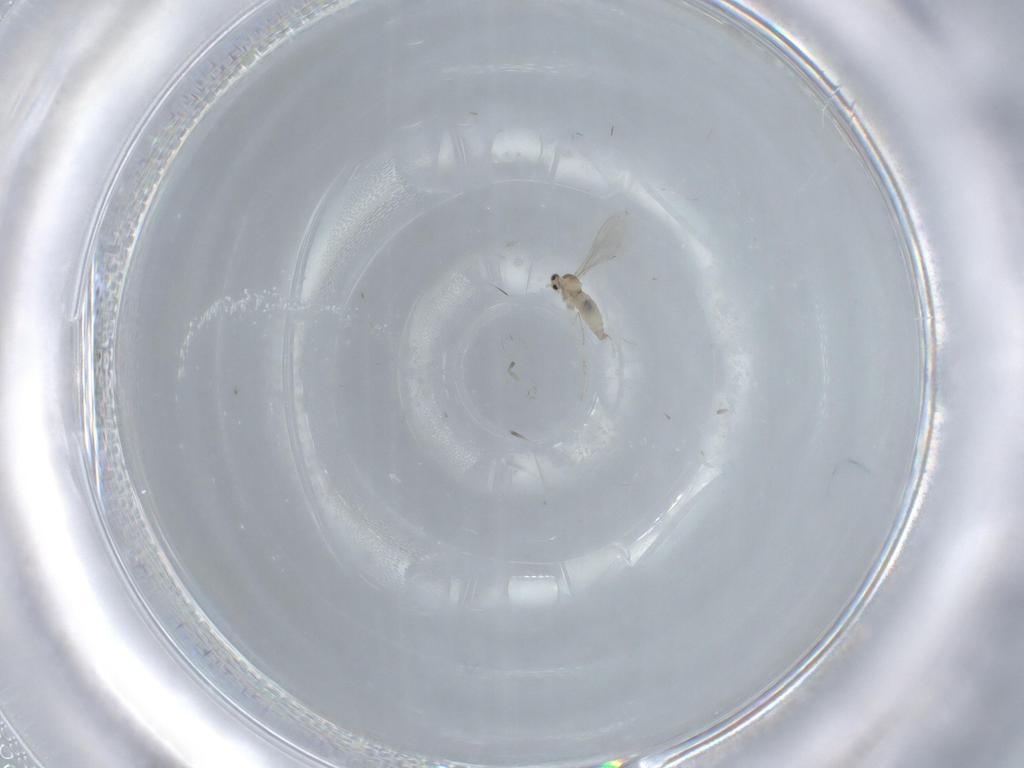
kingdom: Animalia
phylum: Arthropoda
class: Insecta
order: Diptera
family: Cecidomyiidae
